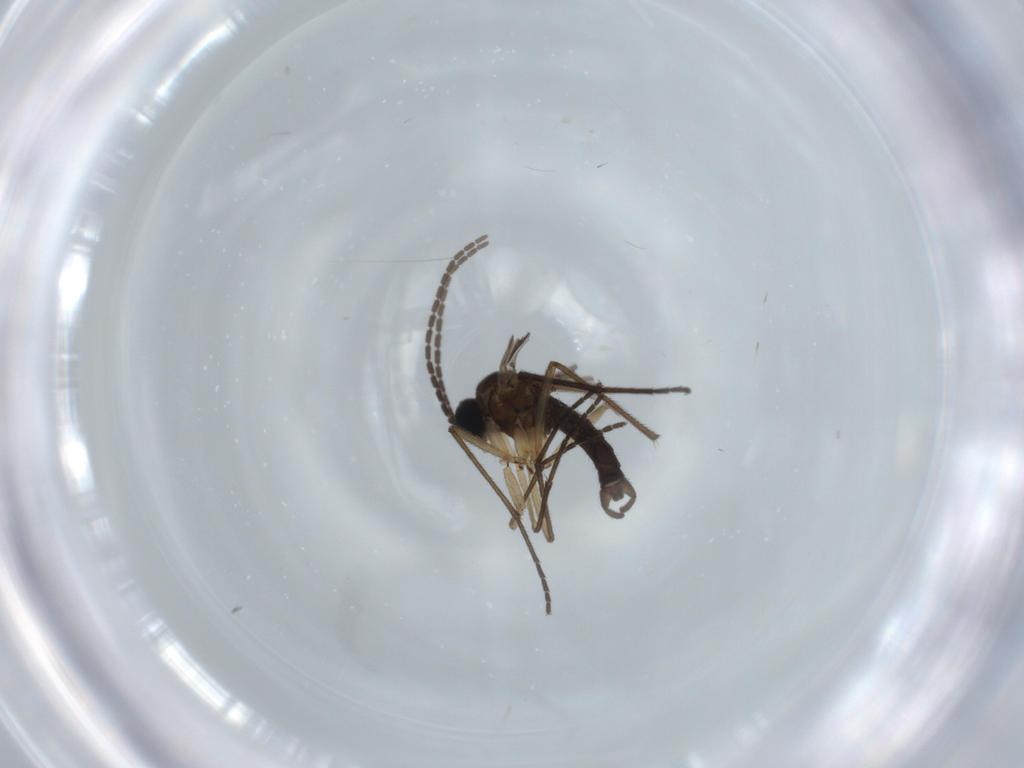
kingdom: Animalia
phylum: Arthropoda
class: Insecta
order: Diptera
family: Sciaridae
